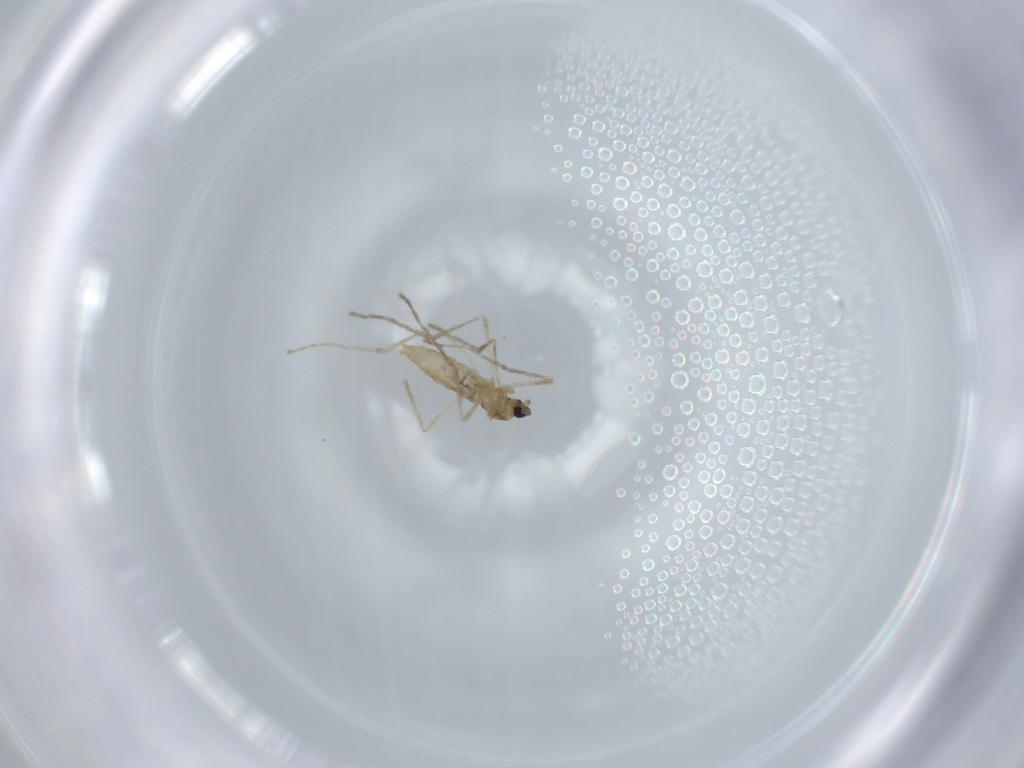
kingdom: Animalia
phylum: Arthropoda
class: Insecta
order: Diptera
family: Cecidomyiidae
